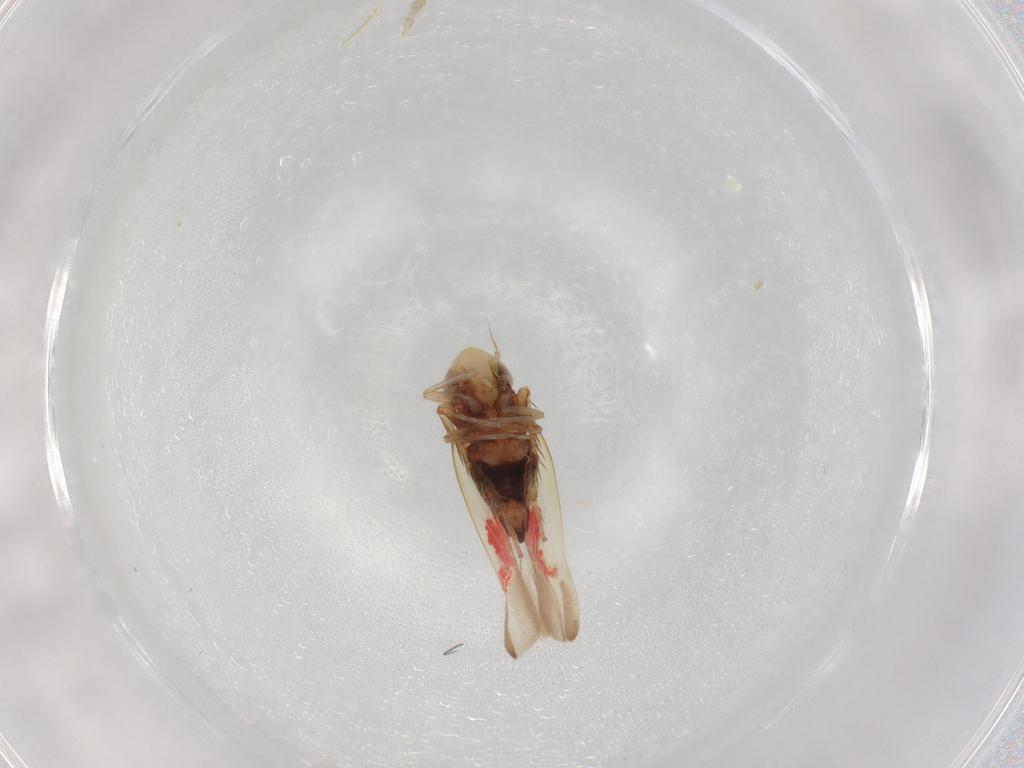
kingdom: Animalia
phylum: Arthropoda
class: Insecta
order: Hemiptera
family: Cicadellidae
